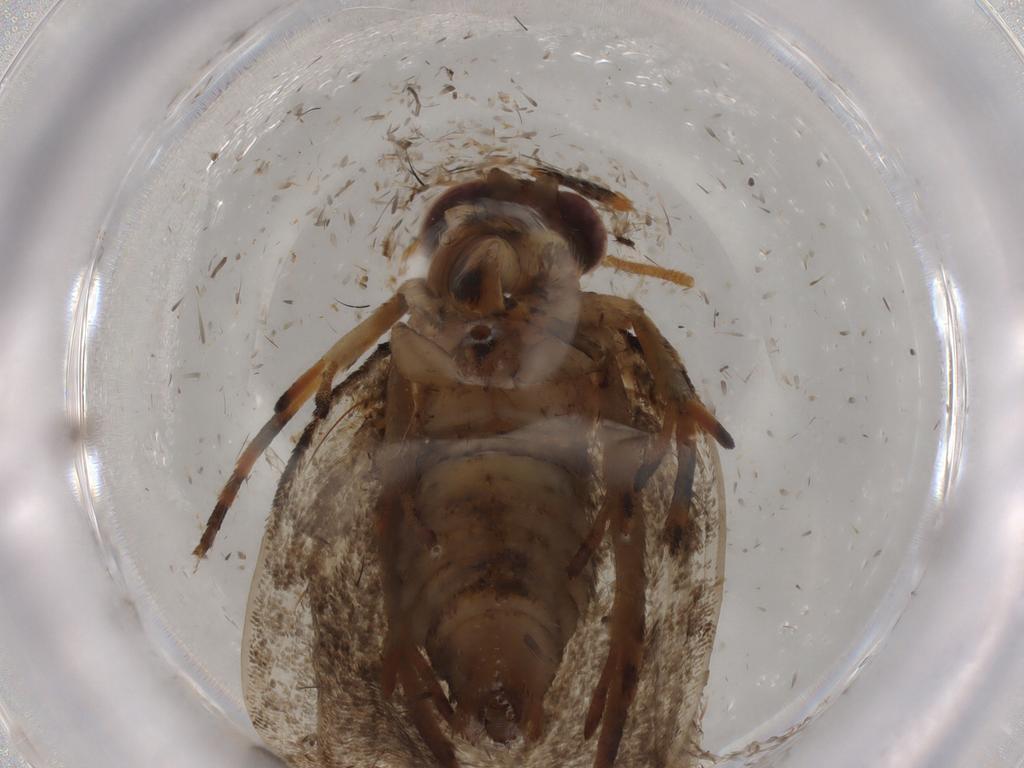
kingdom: Animalia
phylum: Arthropoda
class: Insecta
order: Lepidoptera
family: Tineidae
